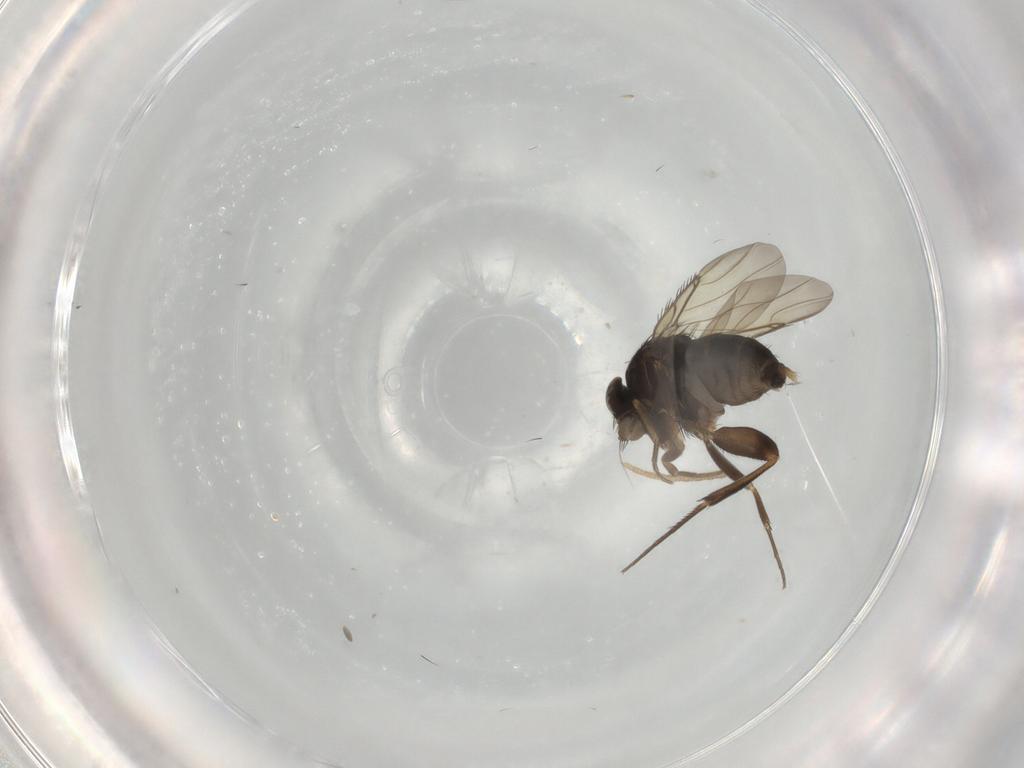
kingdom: Animalia
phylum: Arthropoda
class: Insecta
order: Diptera
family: Phoridae
